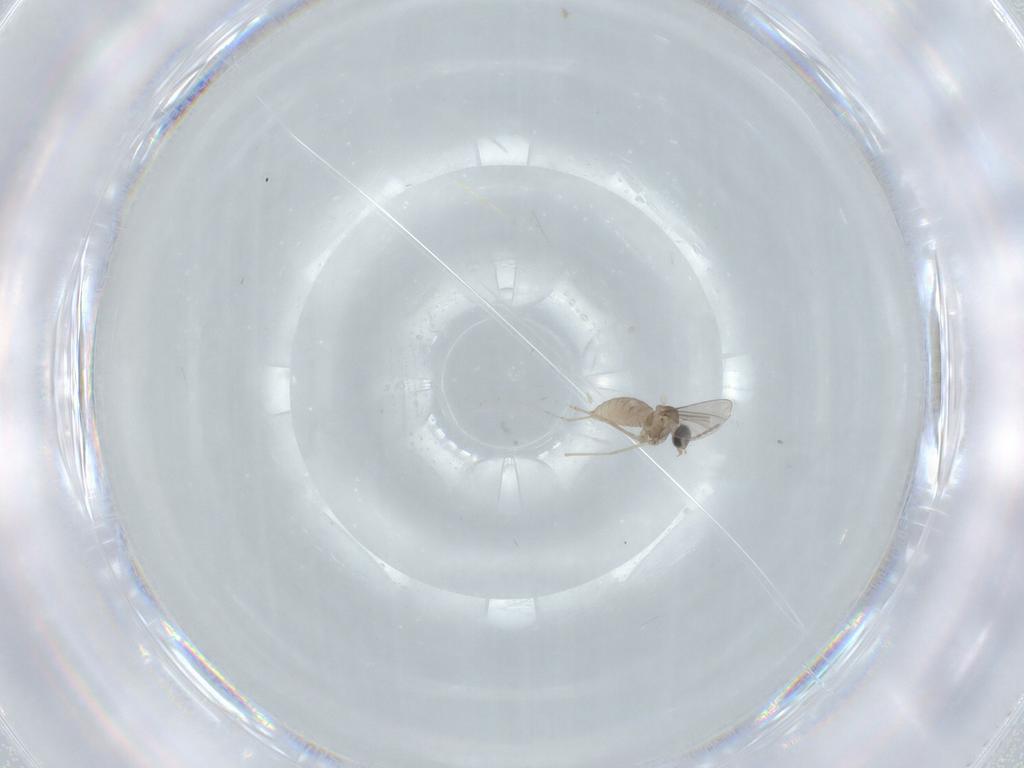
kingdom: Animalia
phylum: Arthropoda
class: Insecta
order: Diptera
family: Cecidomyiidae
